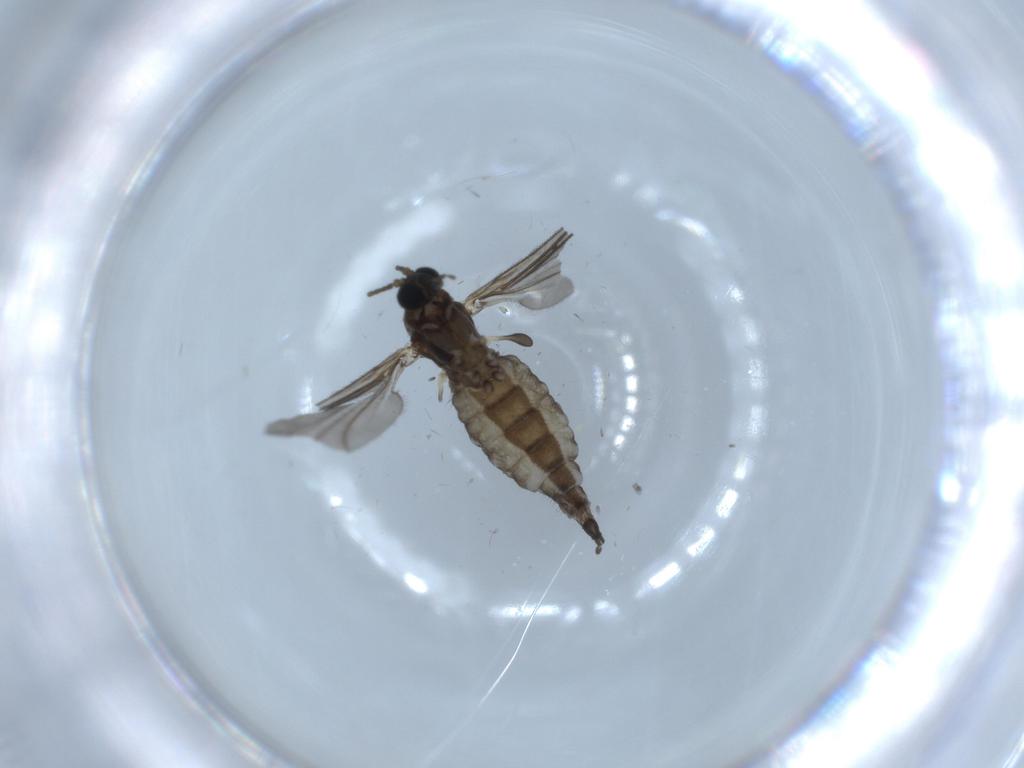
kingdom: Animalia
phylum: Arthropoda
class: Insecta
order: Diptera
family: Sciaridae
